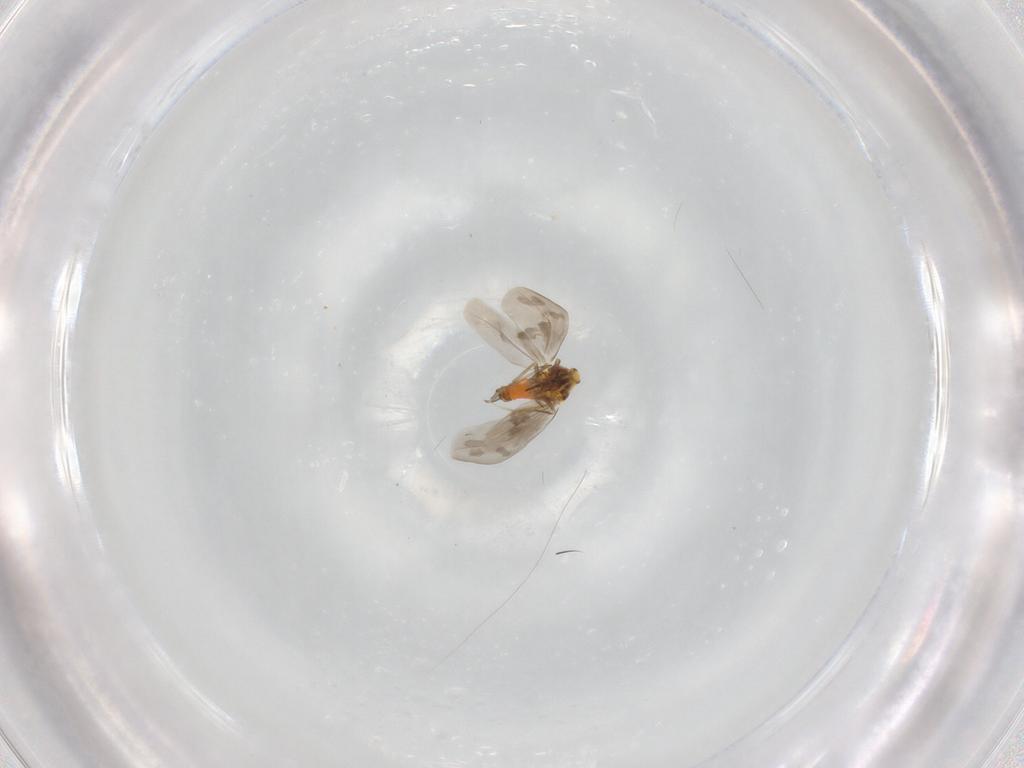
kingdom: Animalia
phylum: Arthropoda
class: Insecta
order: Hemiptera
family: Aleyrodidae
